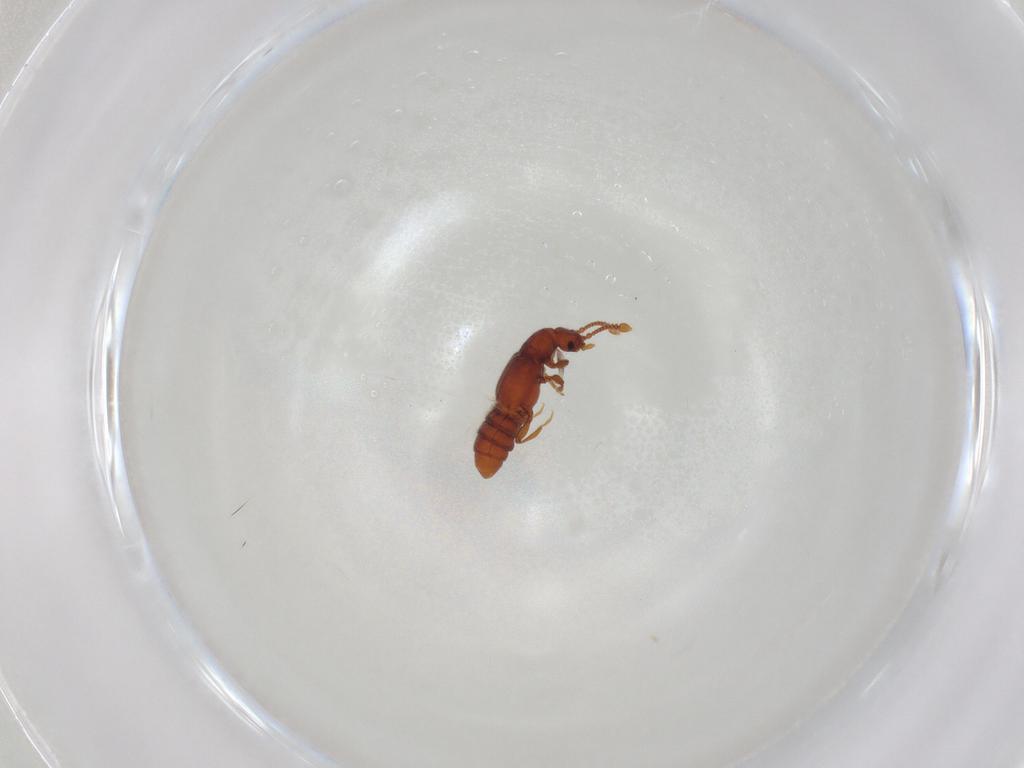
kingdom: Animalia
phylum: Arthropoda
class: Insecta
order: Coleoptera
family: Staphylinidae
